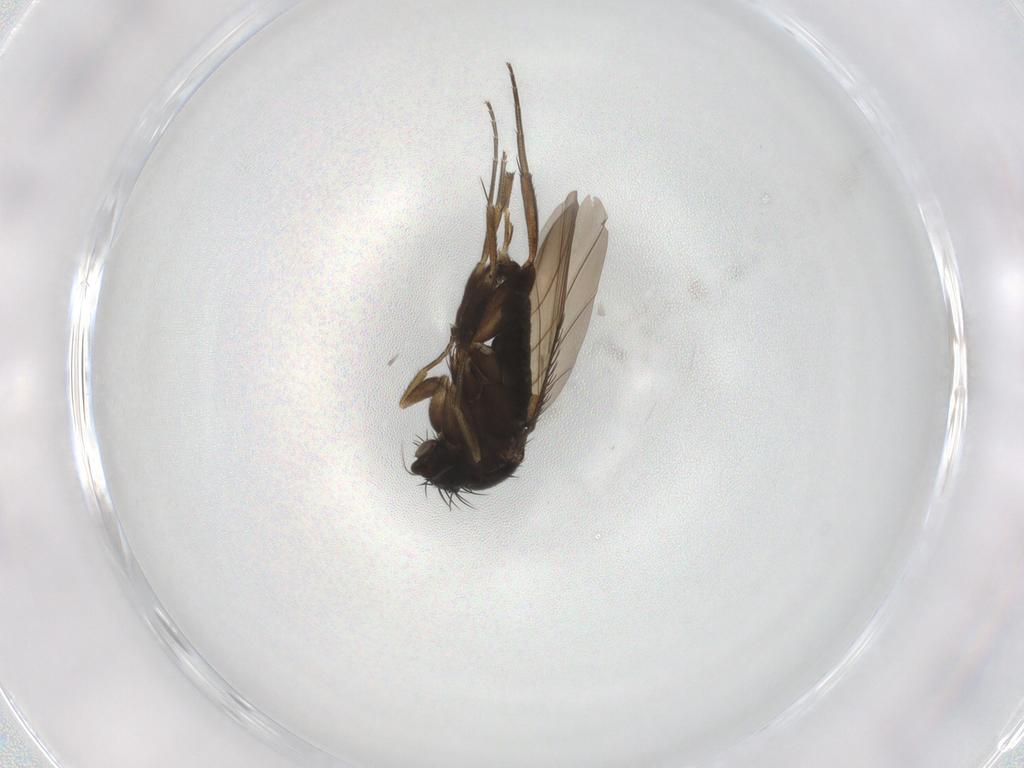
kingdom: Animalia
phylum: Arthropoda
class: Insecta
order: Diptera
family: Phoridae
